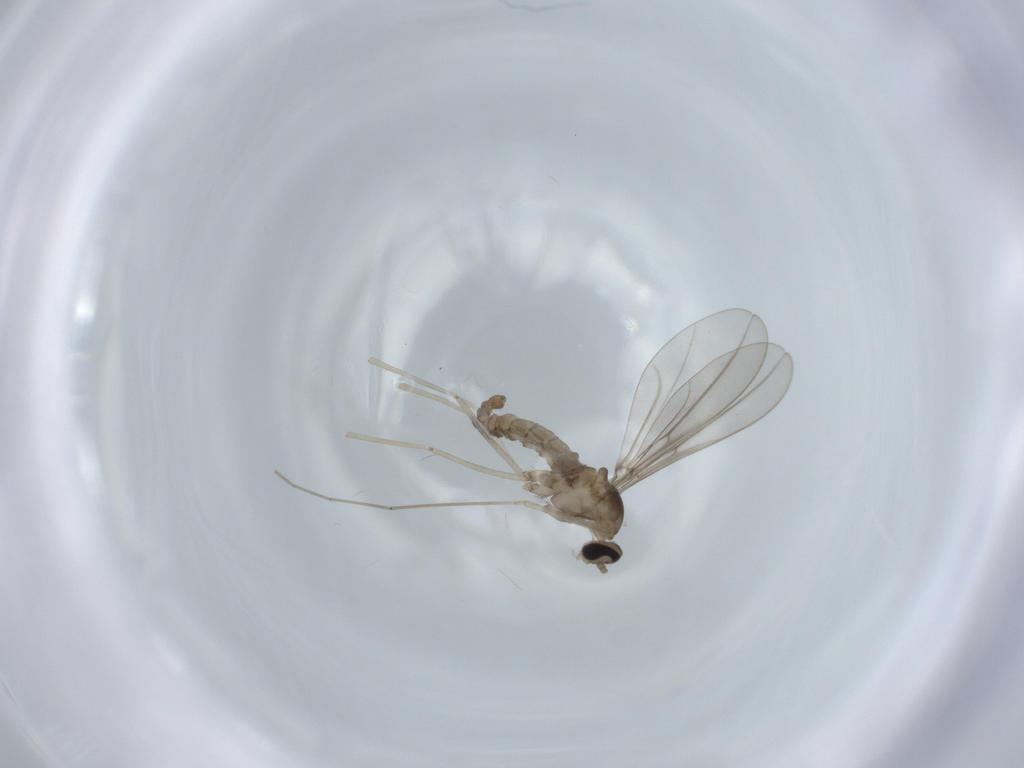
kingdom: Animalia
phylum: Arthropoda
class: Insecta
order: Diptera
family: Cecidomyiidae
